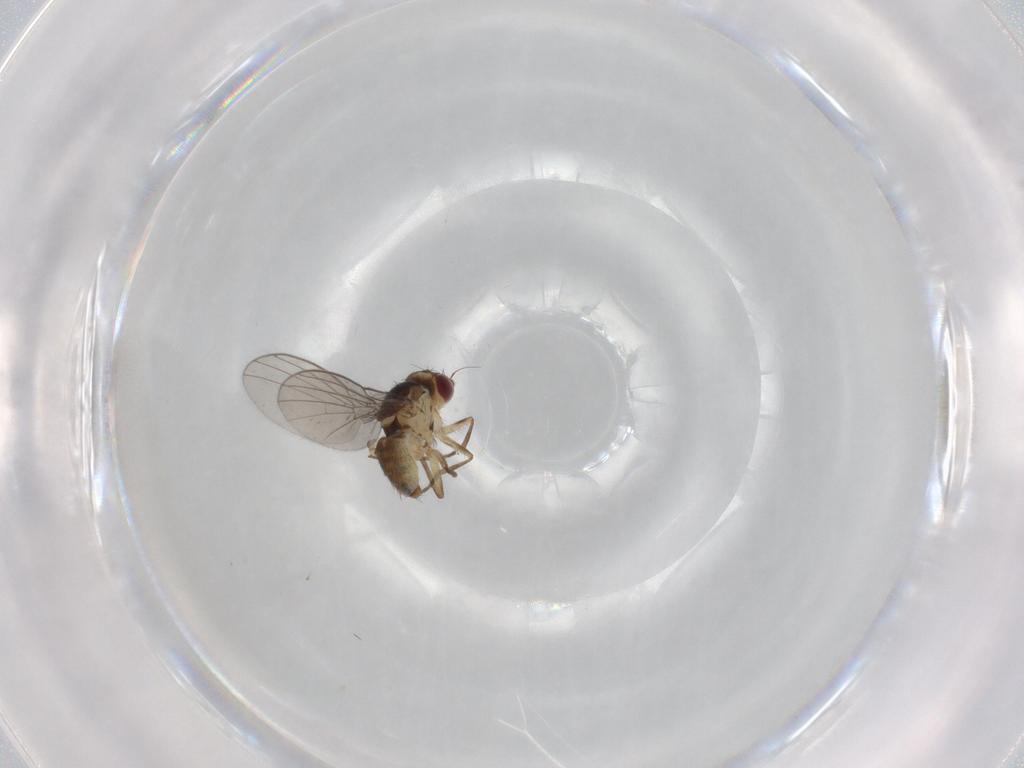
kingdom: Animalia
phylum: Arthropoda
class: Insecta
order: Diptera
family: Agromyzidae
